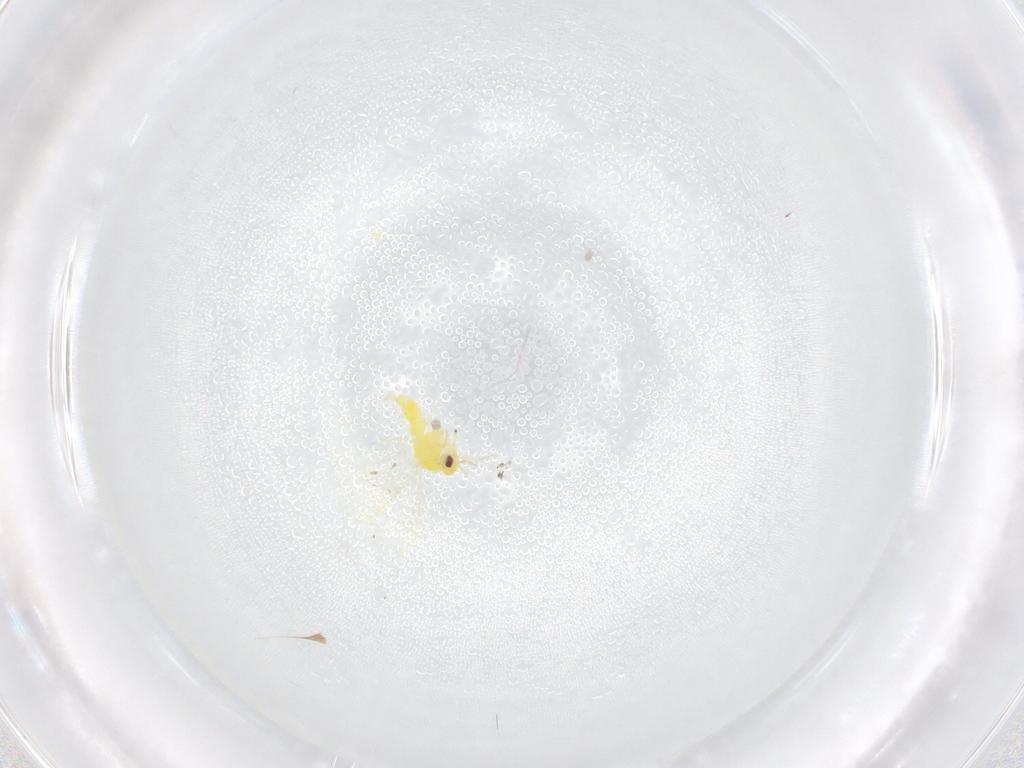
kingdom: Animalia
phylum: Arthropoda
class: Insecta
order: Hemiptera
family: Aleyrodidae
